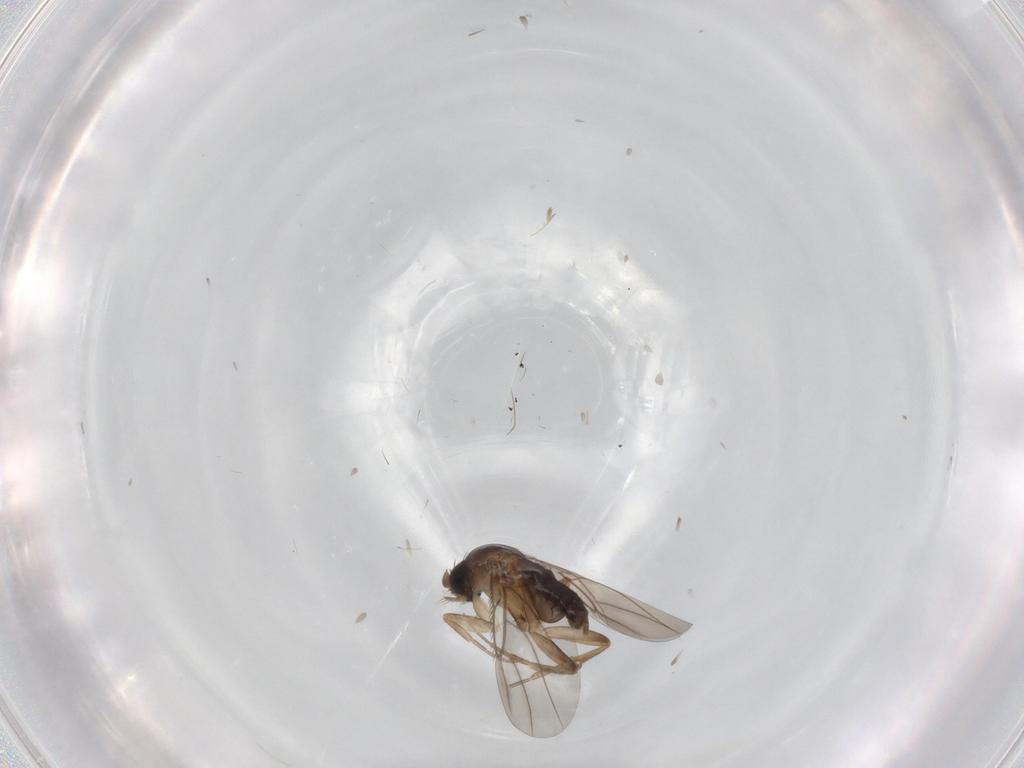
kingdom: Animalia
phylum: Arthropoda
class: Insecta
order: Diptera
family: Phoridae
